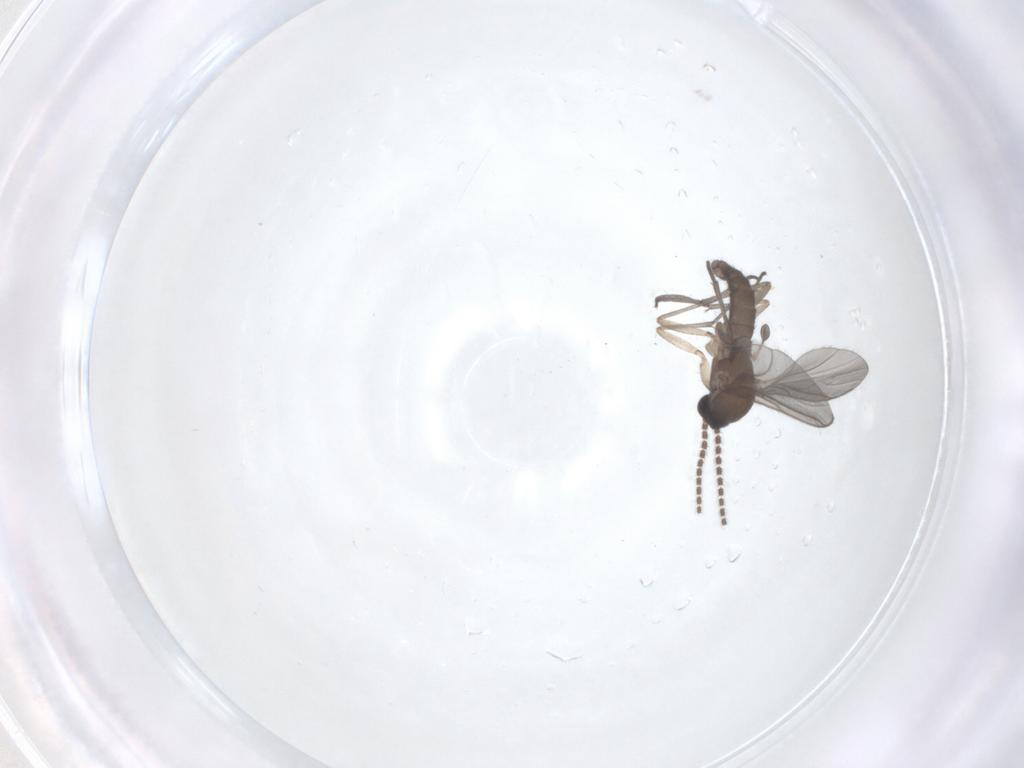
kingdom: Animalia
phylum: Arthropoda
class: Insecta
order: Diptera
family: Sciaridae
